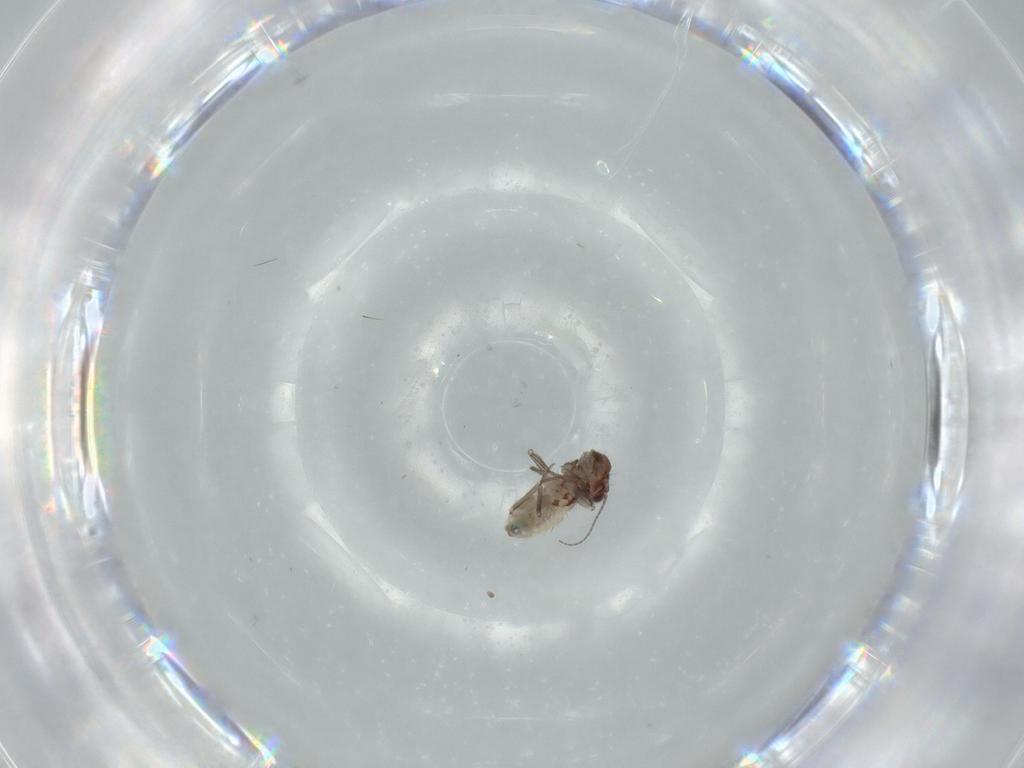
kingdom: Animalia
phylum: Arthropoda
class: Insecta
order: Psocodea
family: Lepidopsocidae
